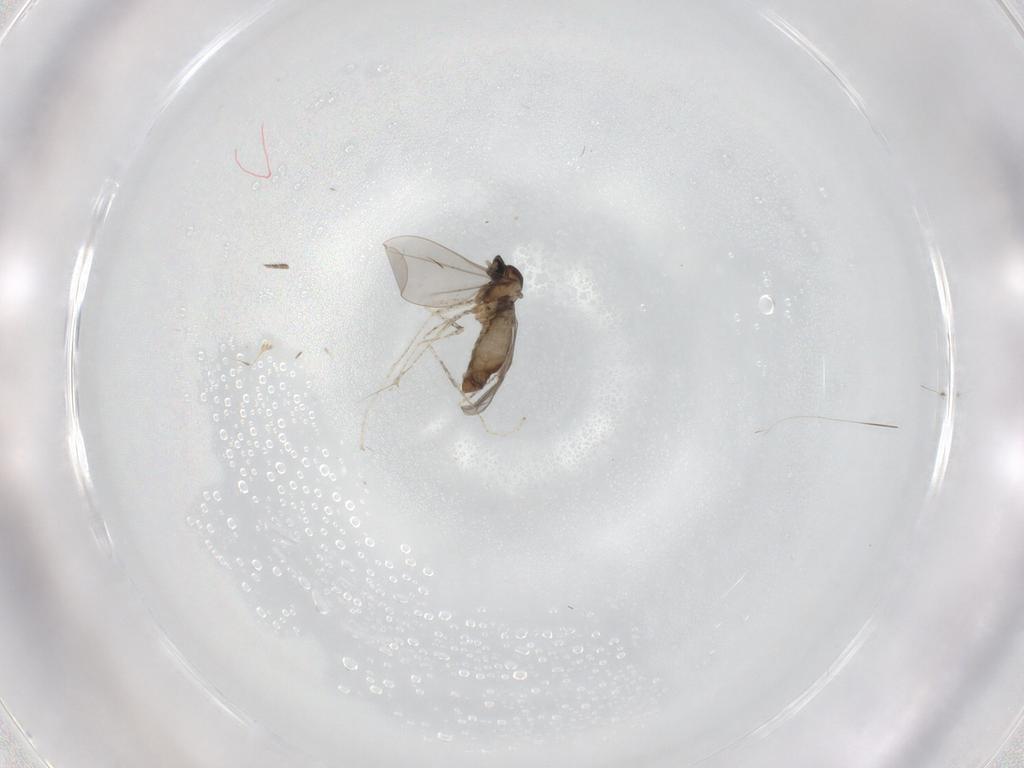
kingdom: Animalia
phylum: Arthropoda
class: Insecta
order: Diptera
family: Phoridae
